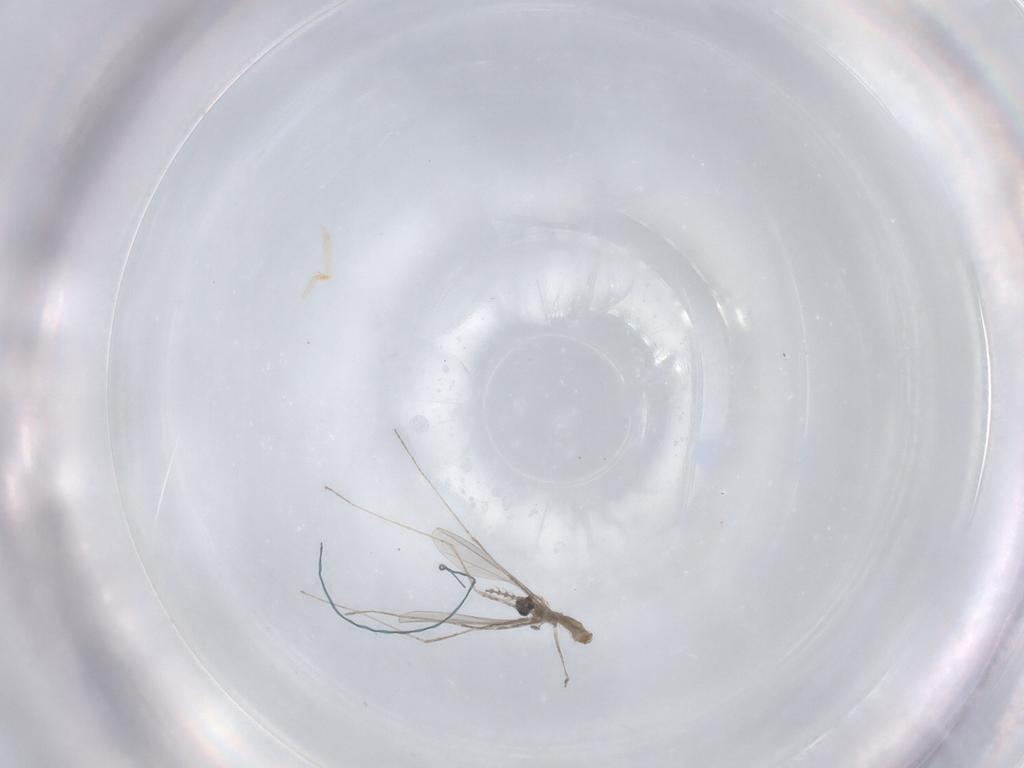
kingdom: Animalia
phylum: Arthropoda
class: Insecta
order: Diptera
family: Cecidomyiidae
